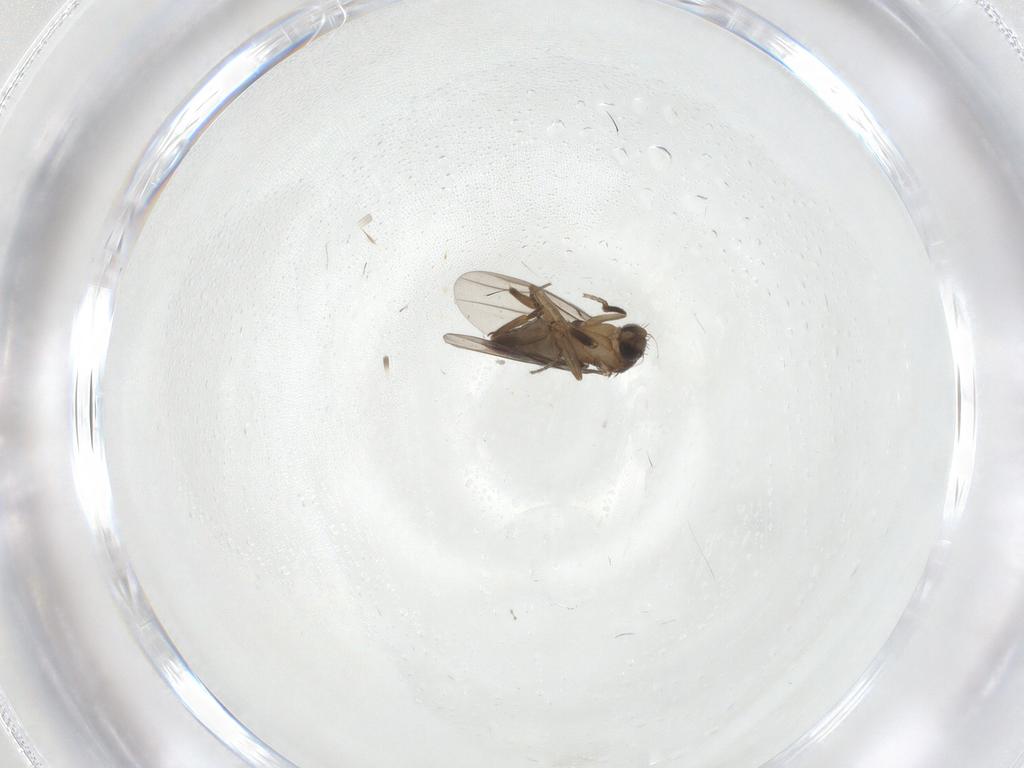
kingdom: Animalia
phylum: Arthropoda
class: Insecta
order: Diptera
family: Phoridae
